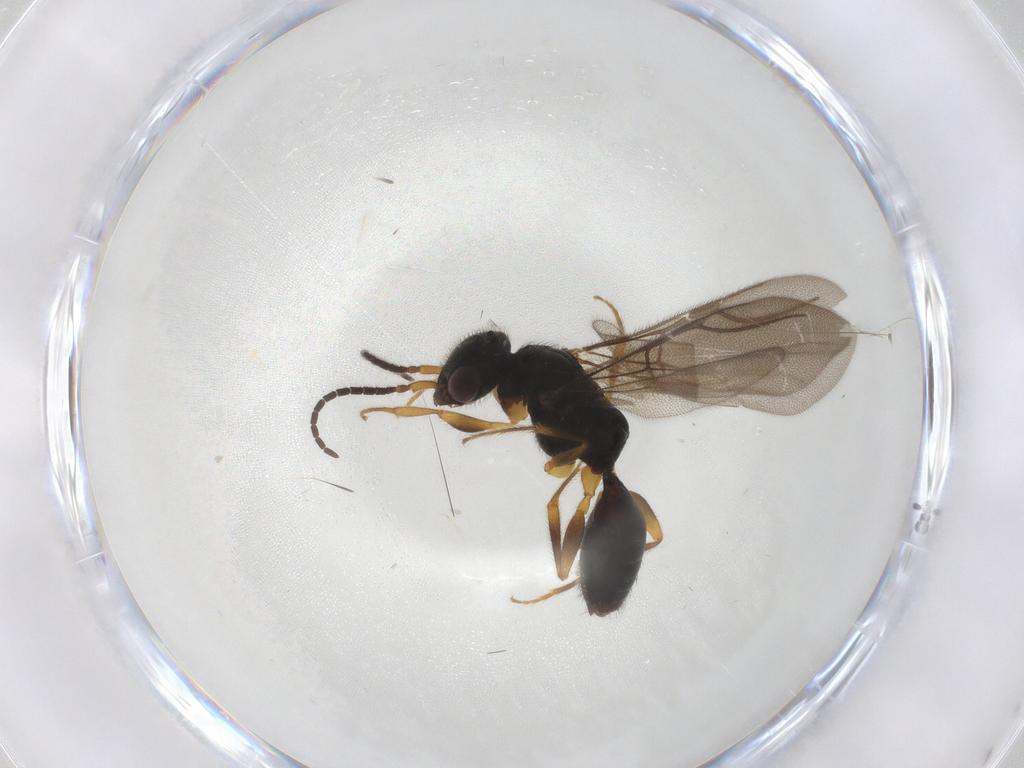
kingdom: Animalia
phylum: Arthropoda
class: Insecta
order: Hymenoptera
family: Bethylidae
